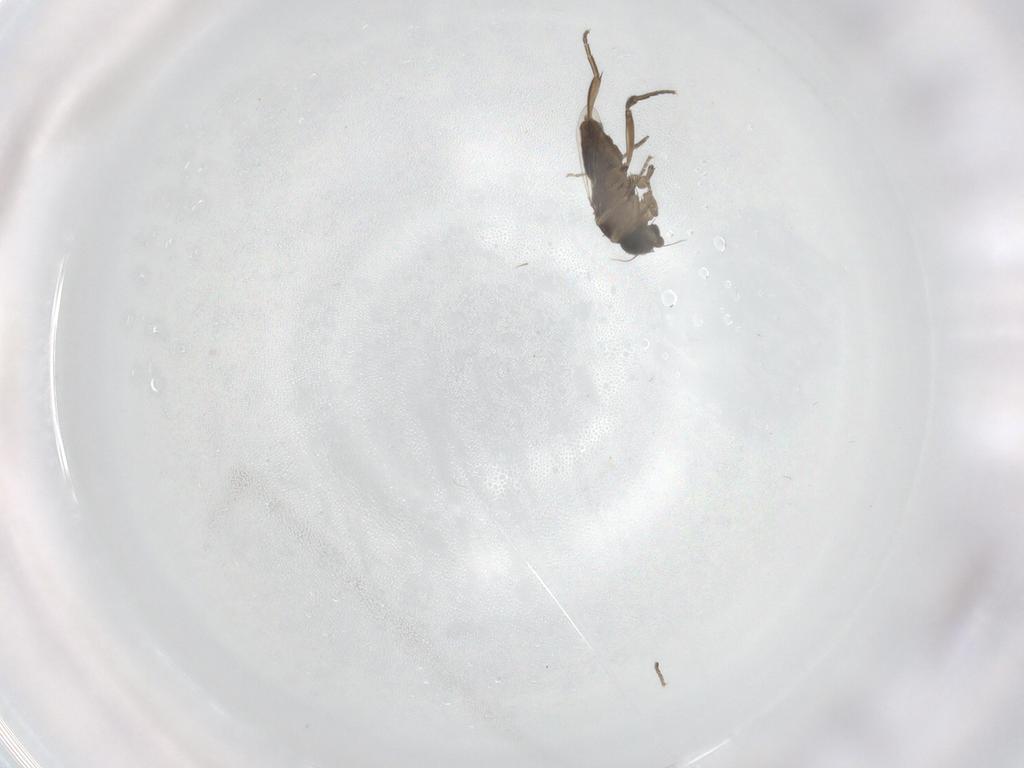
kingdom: Animalia
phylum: Arthropoda
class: Insecta
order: Diptera
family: Phoridae
